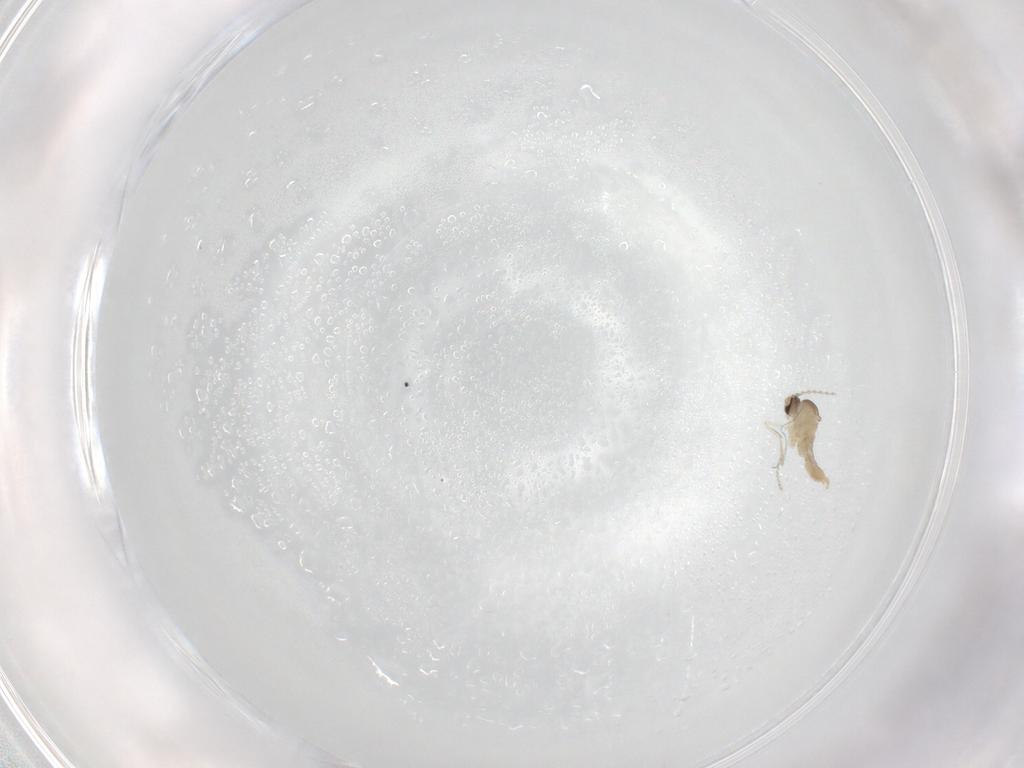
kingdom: Animalia
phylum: Arthropoda
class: Insecta
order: Diptera
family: Cecidomyiidae
